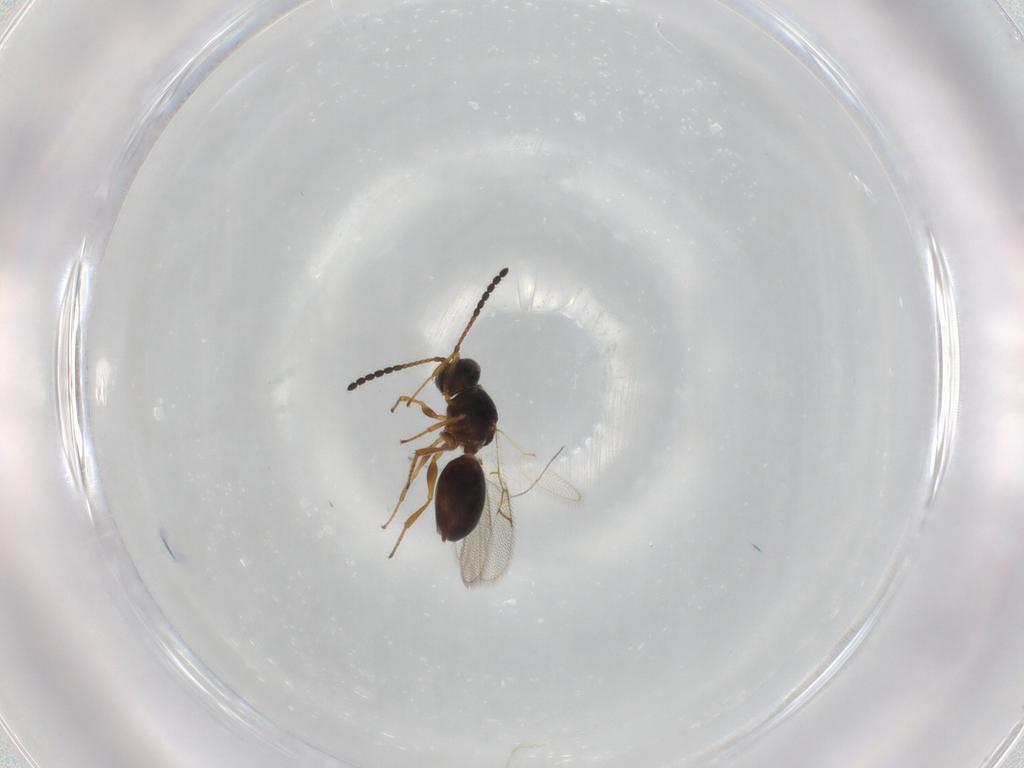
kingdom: Animalia
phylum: Arthropoda
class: Insecta
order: Hymenoptera
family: Figitidae
